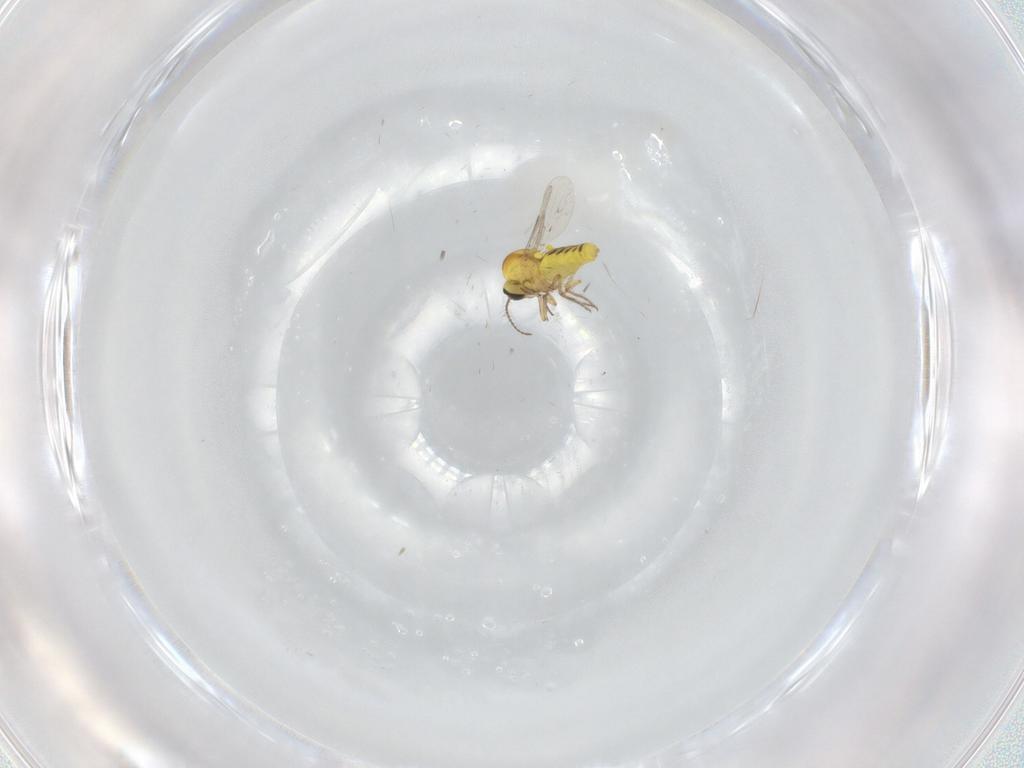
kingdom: Animalia
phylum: Arthropoda
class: Insecta
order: Diptera
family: Ceratopogonidae
